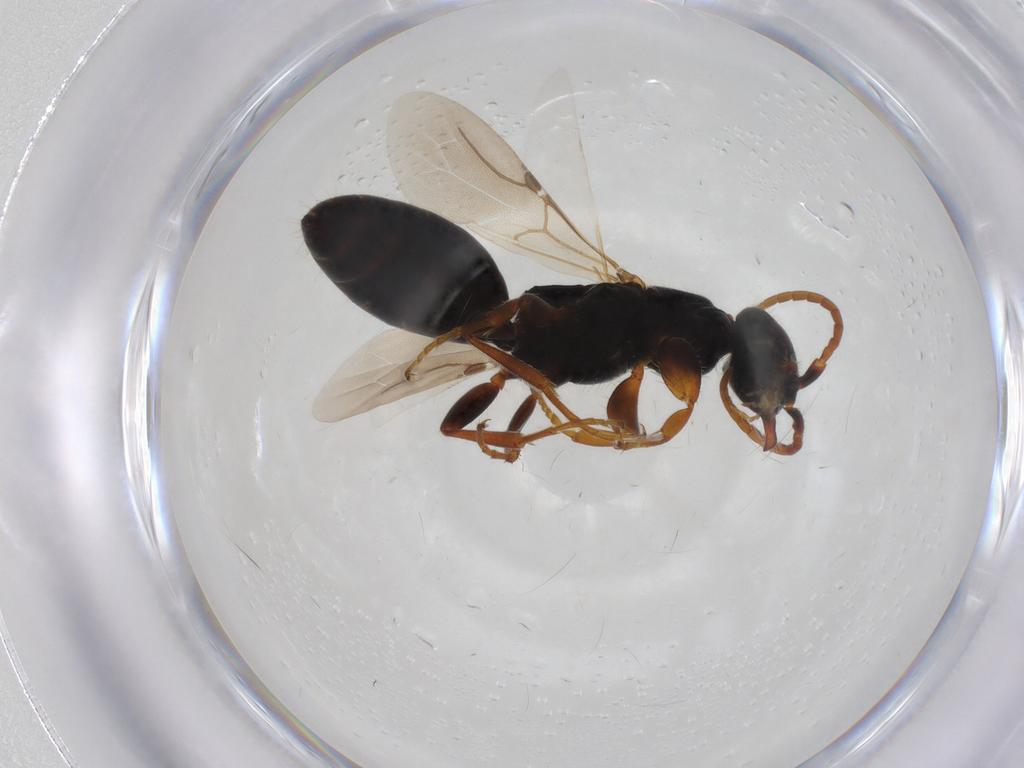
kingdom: Animalia
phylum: Arthropoda
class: Insecta
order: Hymenoptera
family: Bethylidae
